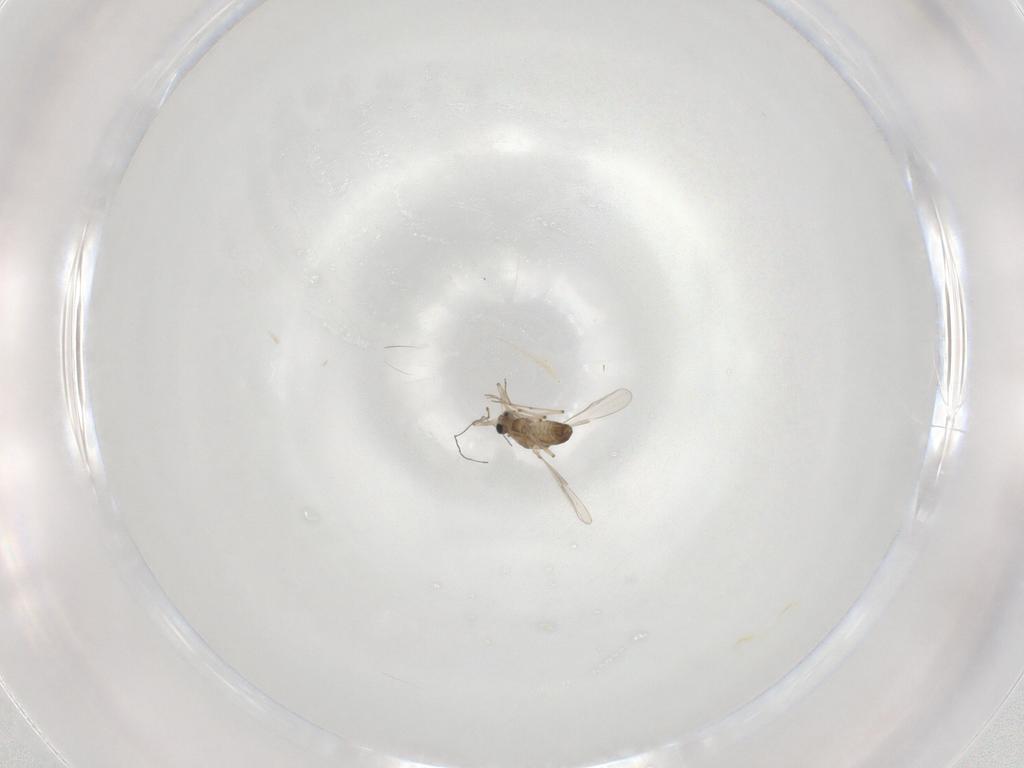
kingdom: Animalia
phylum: Arthropoda
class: Insecta
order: Diptera
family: Chironomidae
